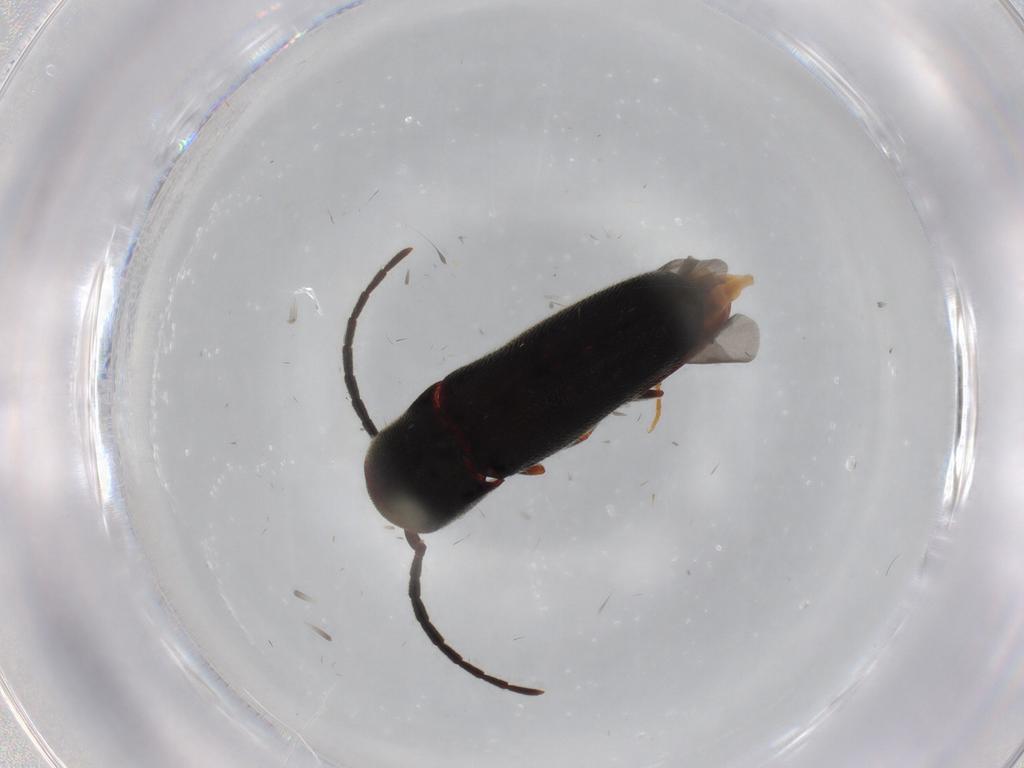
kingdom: Animalia
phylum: Arthropoda
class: Insecta
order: Coleoptera
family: Eucnemidae
